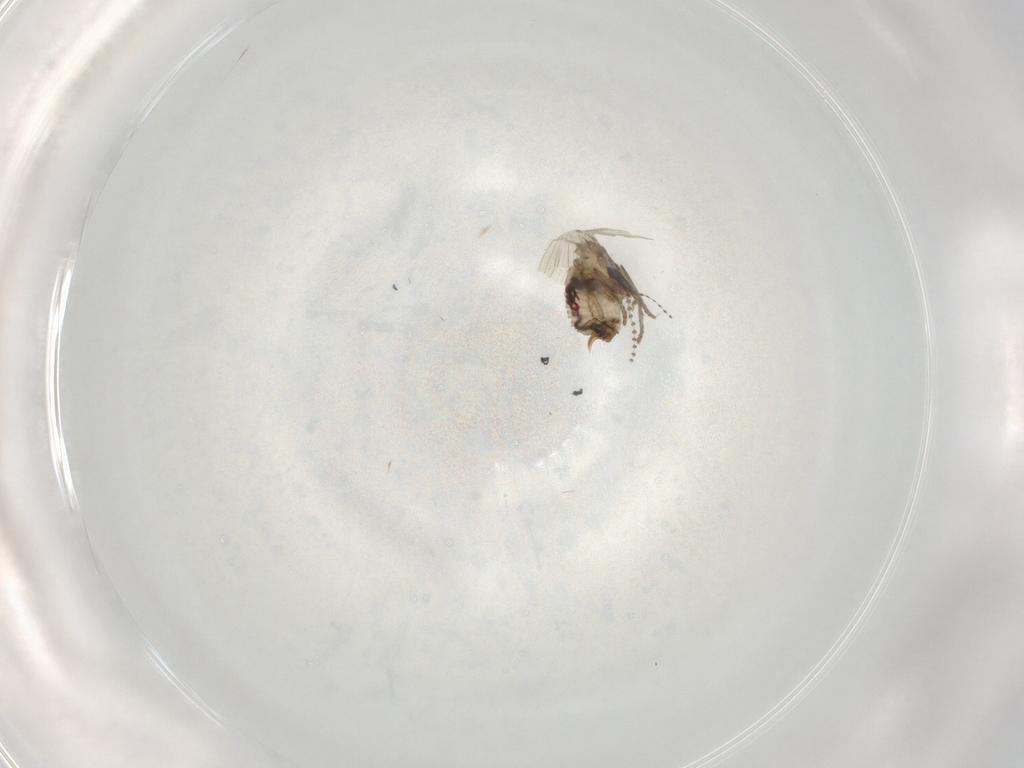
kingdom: Animalia
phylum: Arthropoda
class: Insecta
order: Diptera
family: Psychodidae
